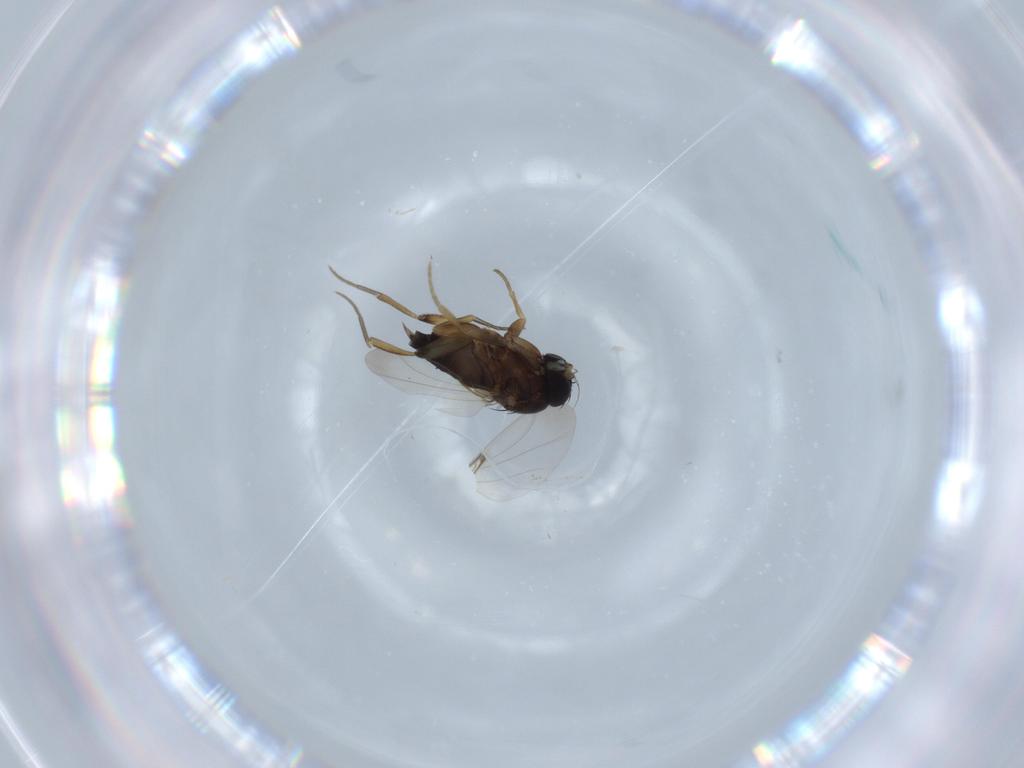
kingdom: Animalia
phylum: Arthropoda
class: Insecta
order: Diptera
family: Phoridae
